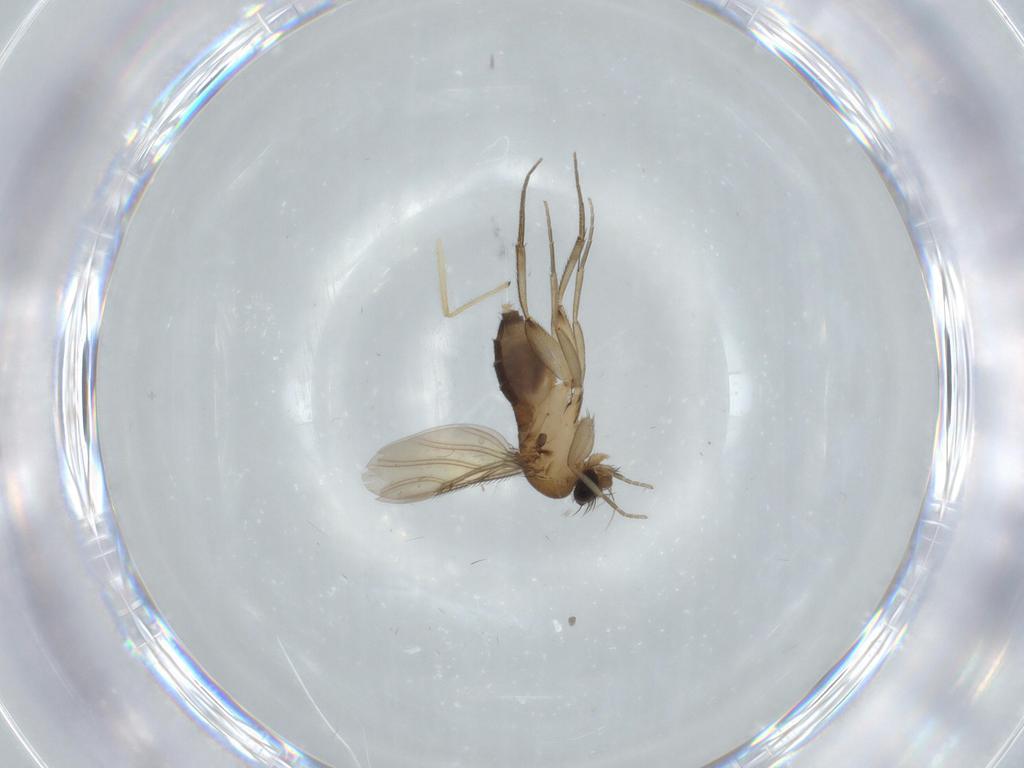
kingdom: Animalia
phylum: Arthropoda
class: Insecta
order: Diptera
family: Phoridae
